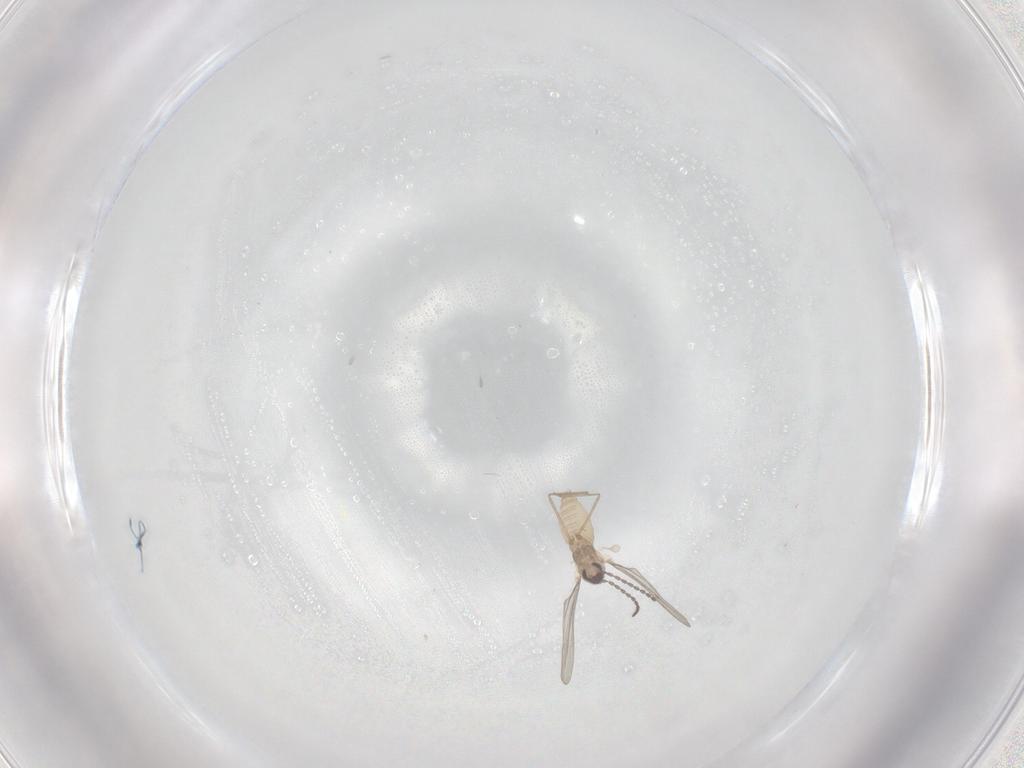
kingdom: Animalia
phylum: Arthropoda
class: Insecta
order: Diptera
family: Cecidomyiidae
